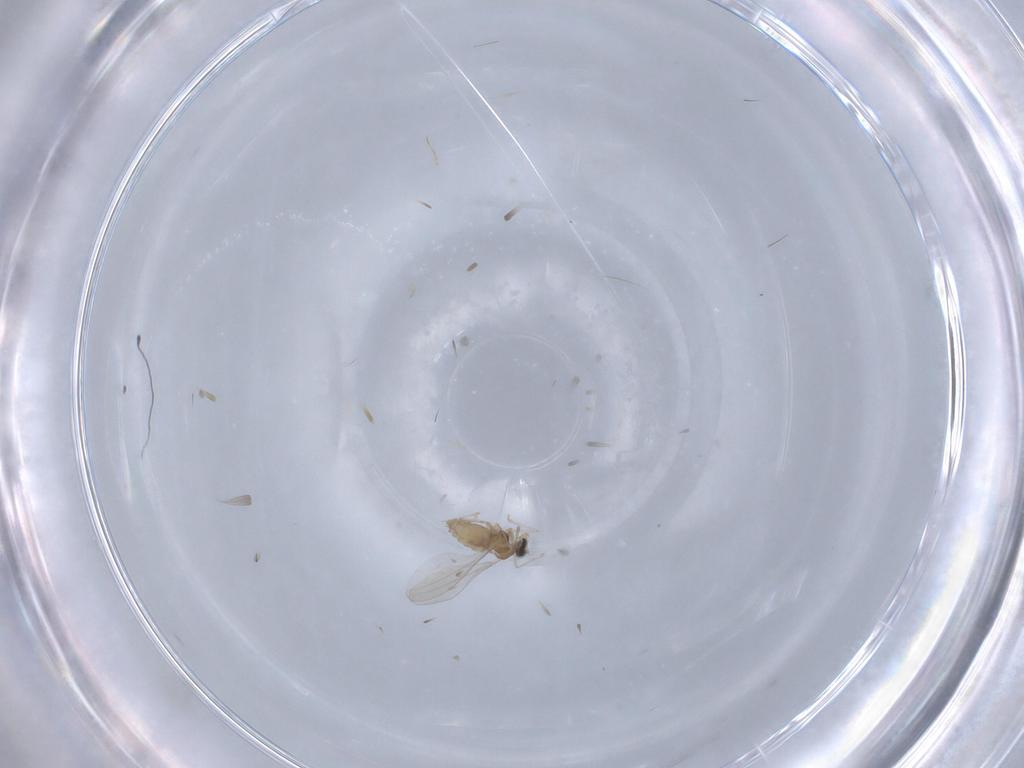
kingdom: Animalia
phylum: Arthropoda
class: Insecta
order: Diptera
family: Cecidomyiidae
